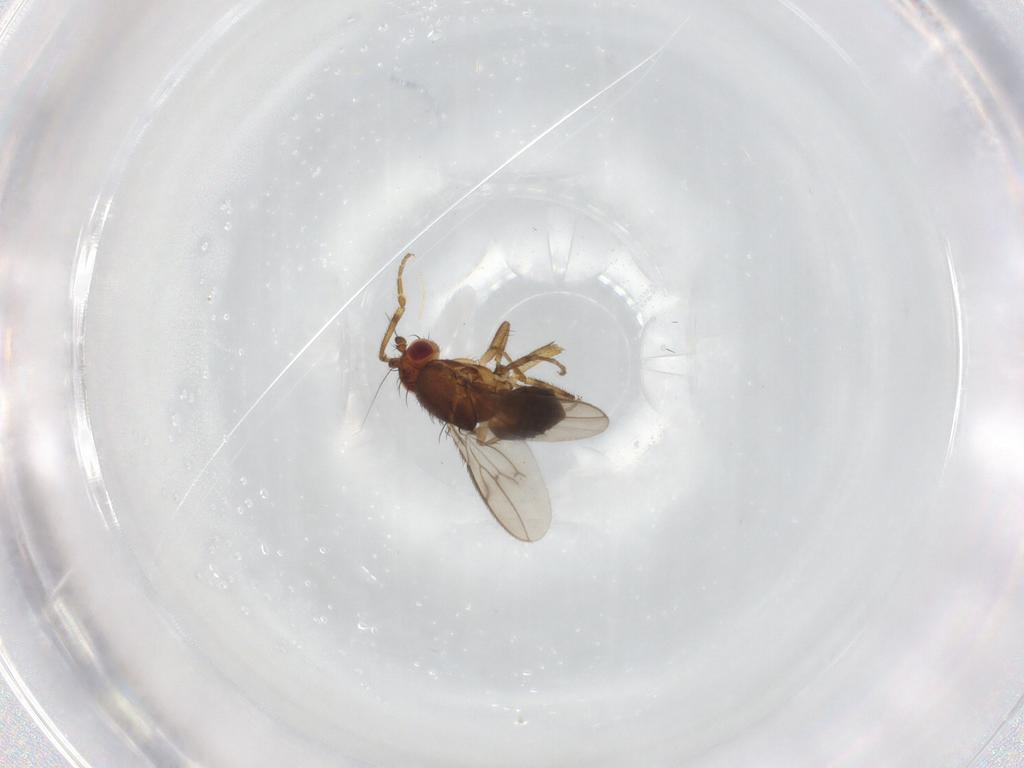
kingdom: Animalia
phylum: Arthropoda
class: Insecta
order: Diptera
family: Sphaeroceridae
